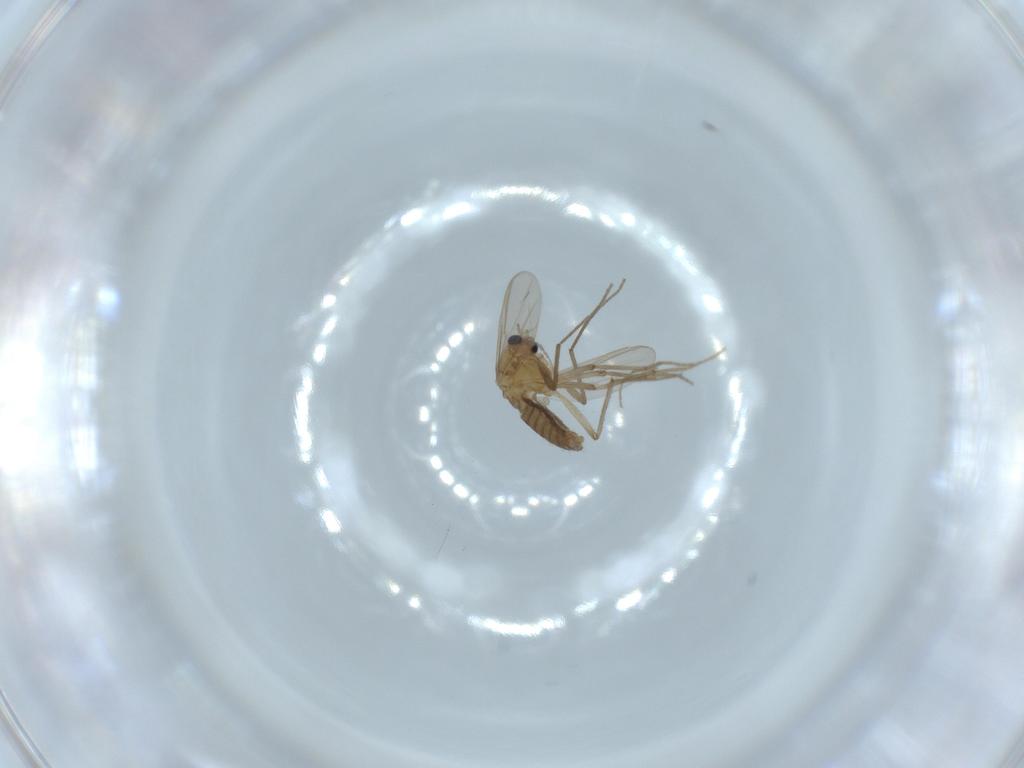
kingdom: Animalia
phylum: Arthropoda
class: Insecta
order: Diptera
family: Chironomidae
